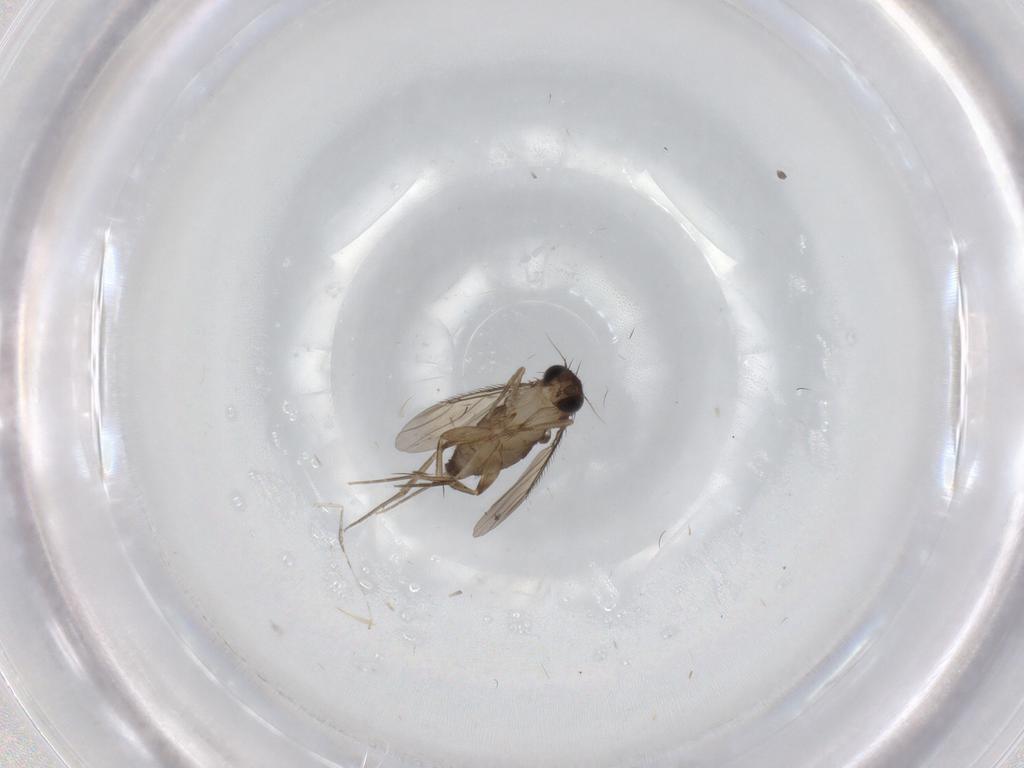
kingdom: Animalia
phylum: Arthropoda
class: Insecta
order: Diptera
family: Phoridae
